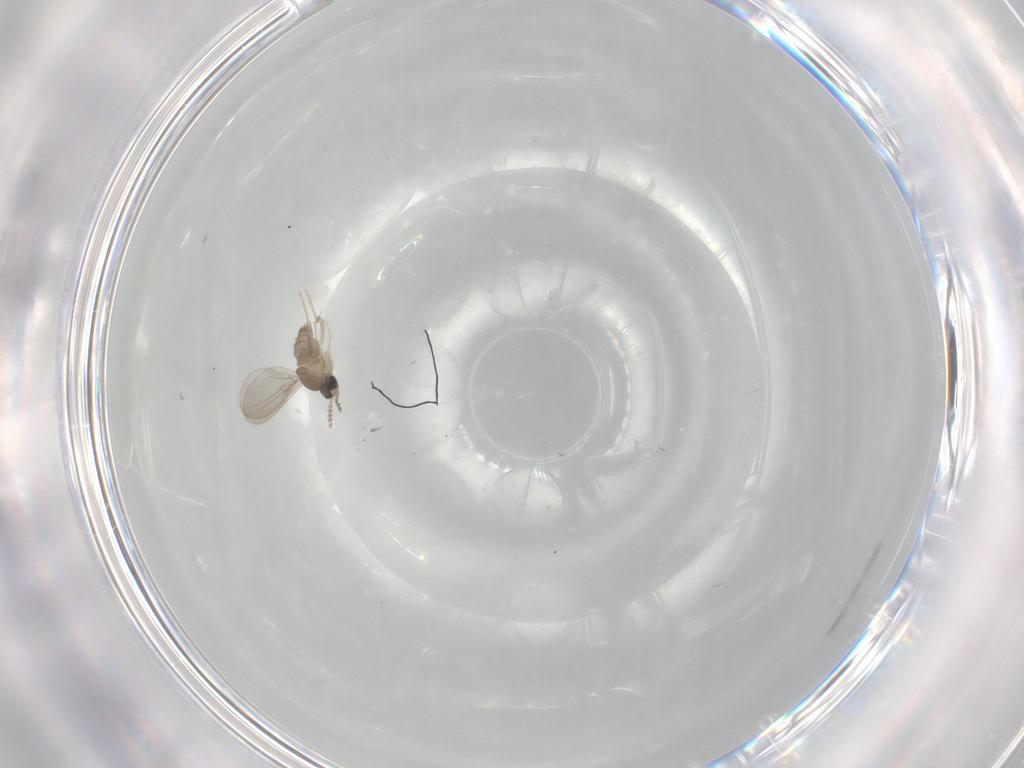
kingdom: Animalia
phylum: Arthropoda
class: Insecta
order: Diptera
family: Cecidomyiidae
